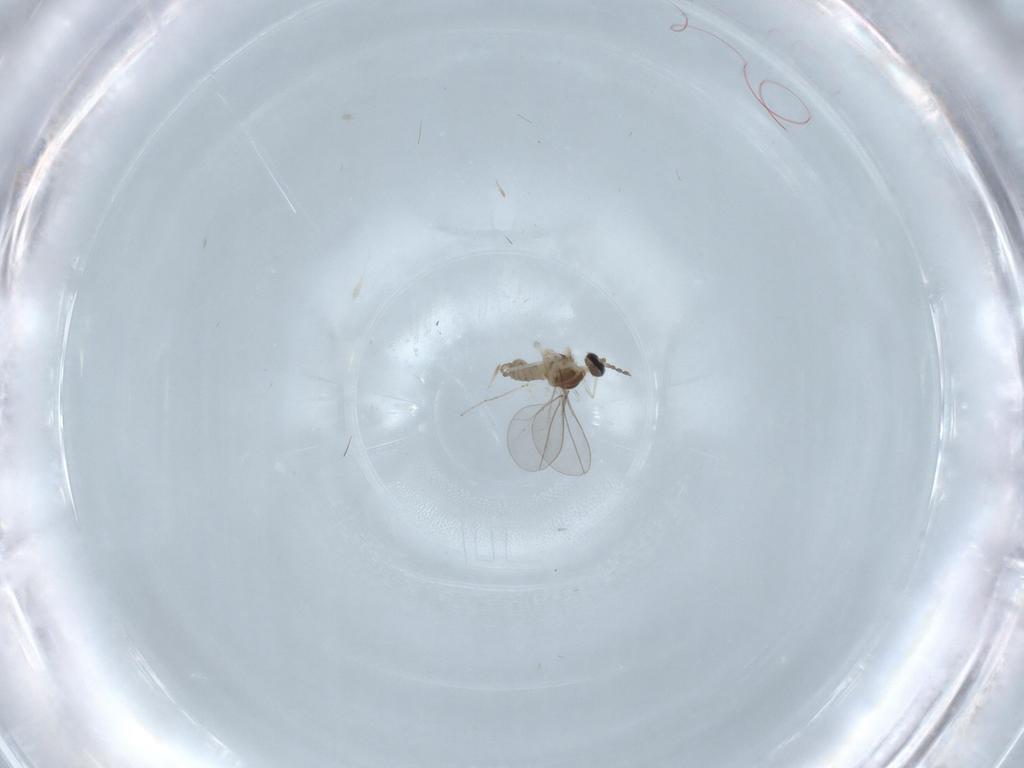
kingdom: Animalia
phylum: Arthropoda
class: Insecta
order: Diptera
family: Cecidomyiidae
